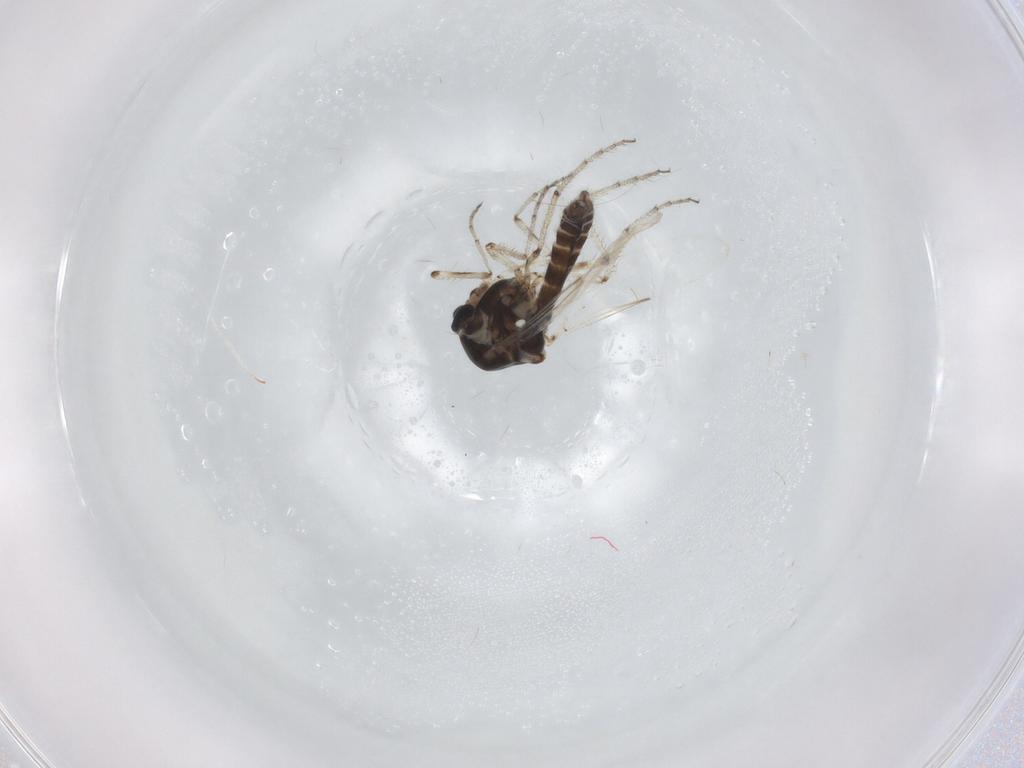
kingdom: Animalia
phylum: Arthropoda
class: Insecta
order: Diptera
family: Ceratopogonidae
